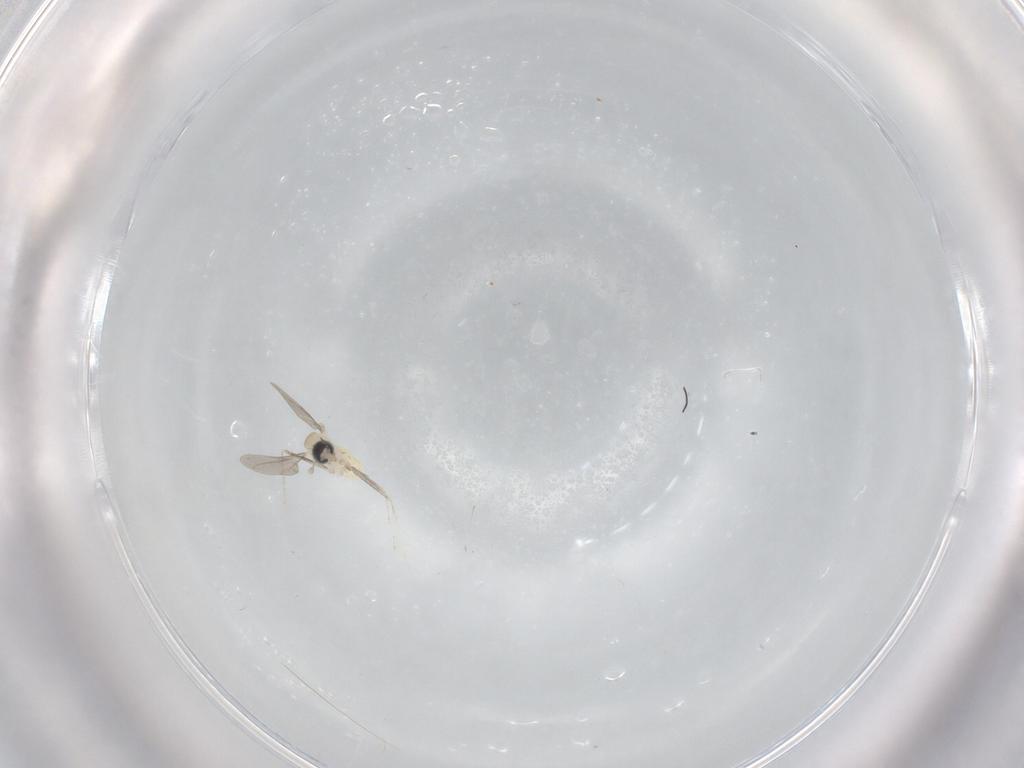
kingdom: Animalia
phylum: Arthropoda
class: Insecta
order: Diptera
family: Cecidomyiidae
